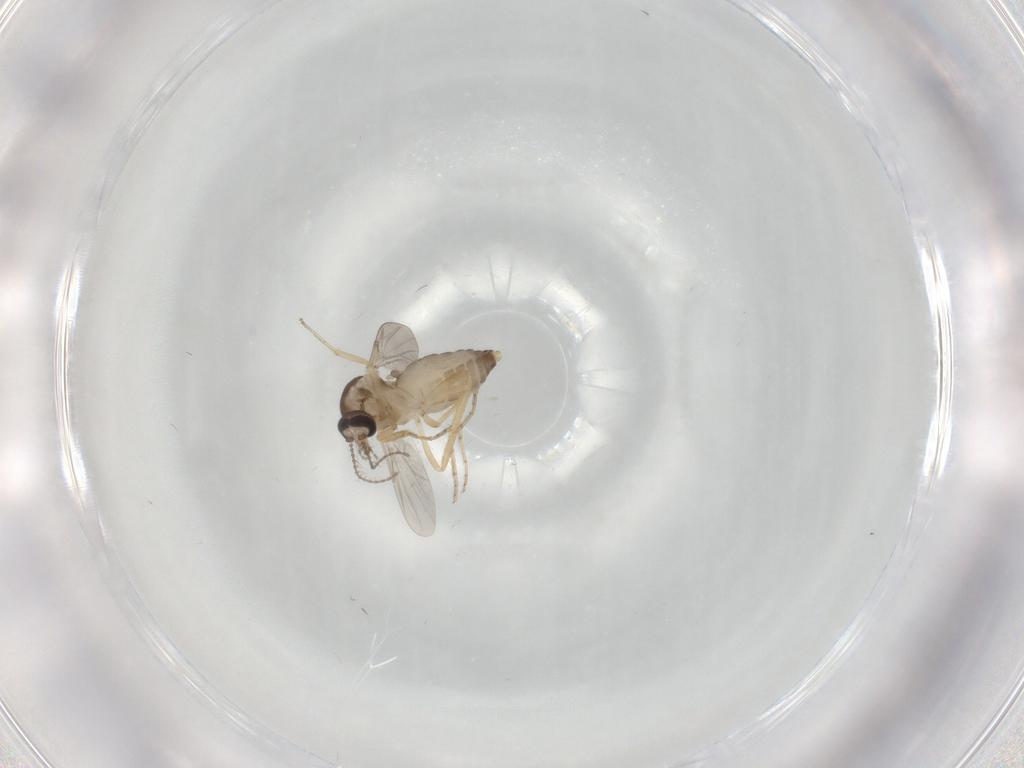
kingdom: Animalia
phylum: Arthropoda
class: Insecta
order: Diptera
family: Ceratopogonidae
